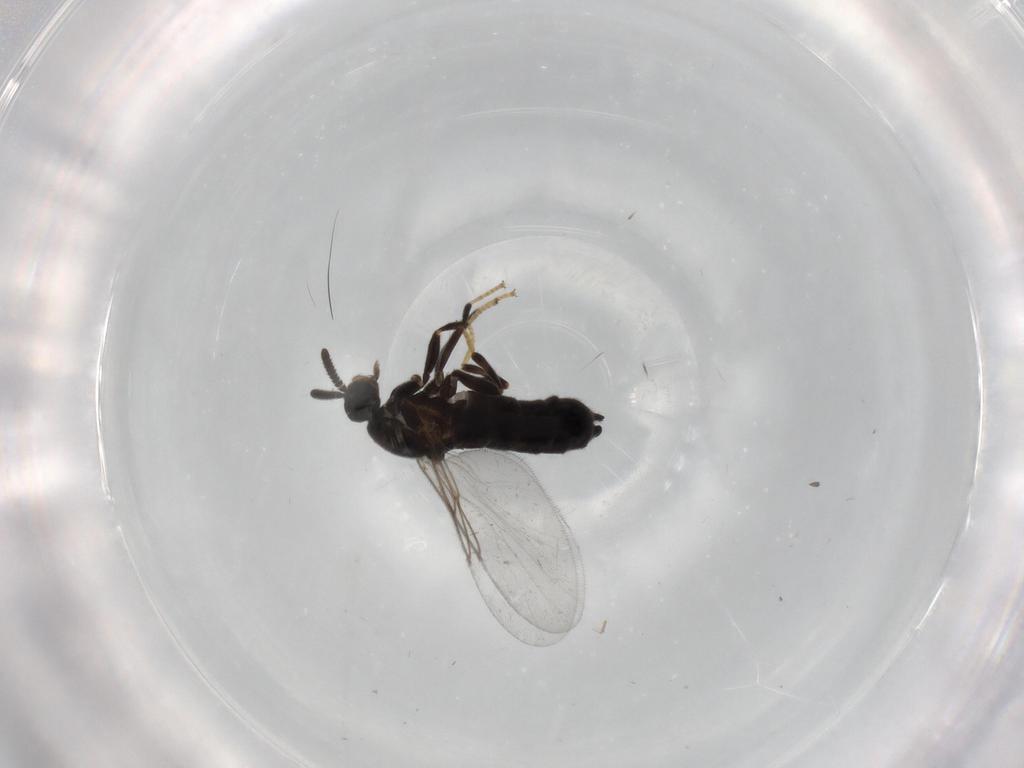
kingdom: Animalia
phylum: Arthropoda
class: Insecta
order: Diptera
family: Scatopsidae
